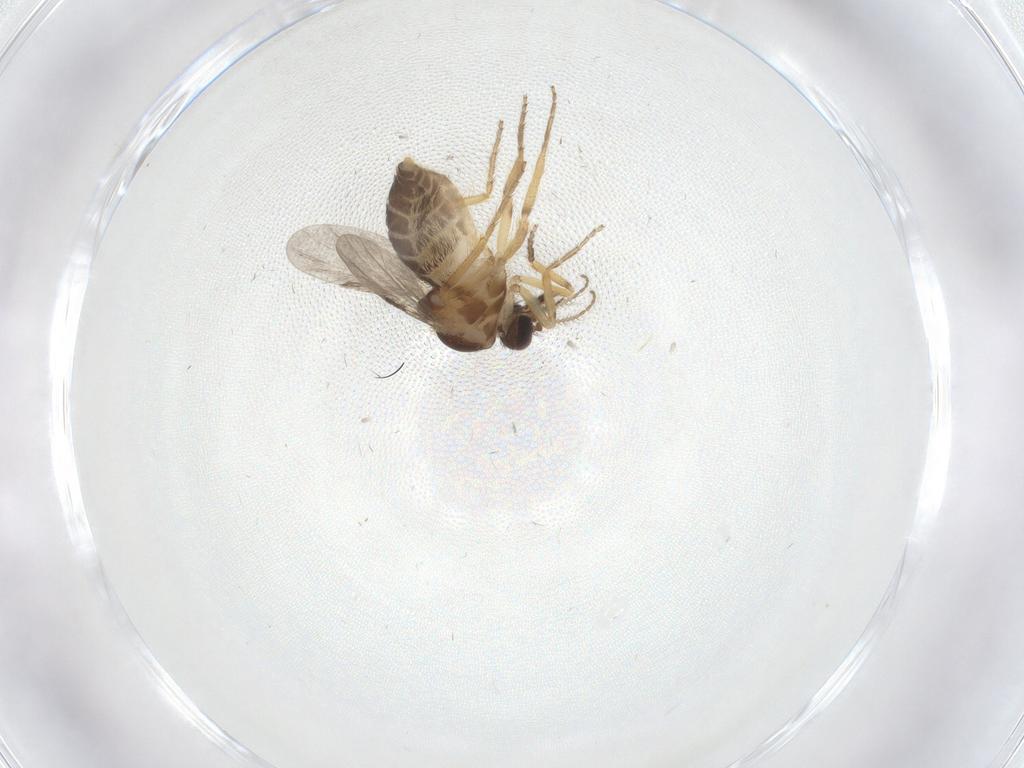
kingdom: Animalia
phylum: Arthropoda
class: Insecta
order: Diptera
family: Ceratopogonidae
